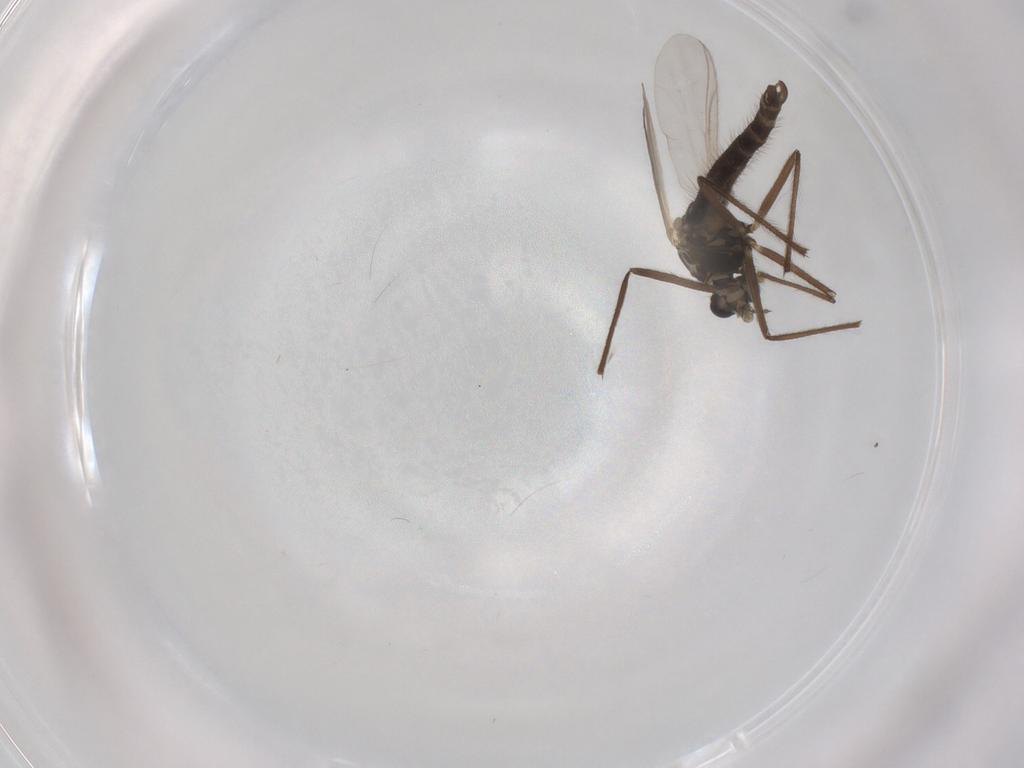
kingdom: Animalia
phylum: Arthropoda
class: Insecta
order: Diptera
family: Chironomidae
